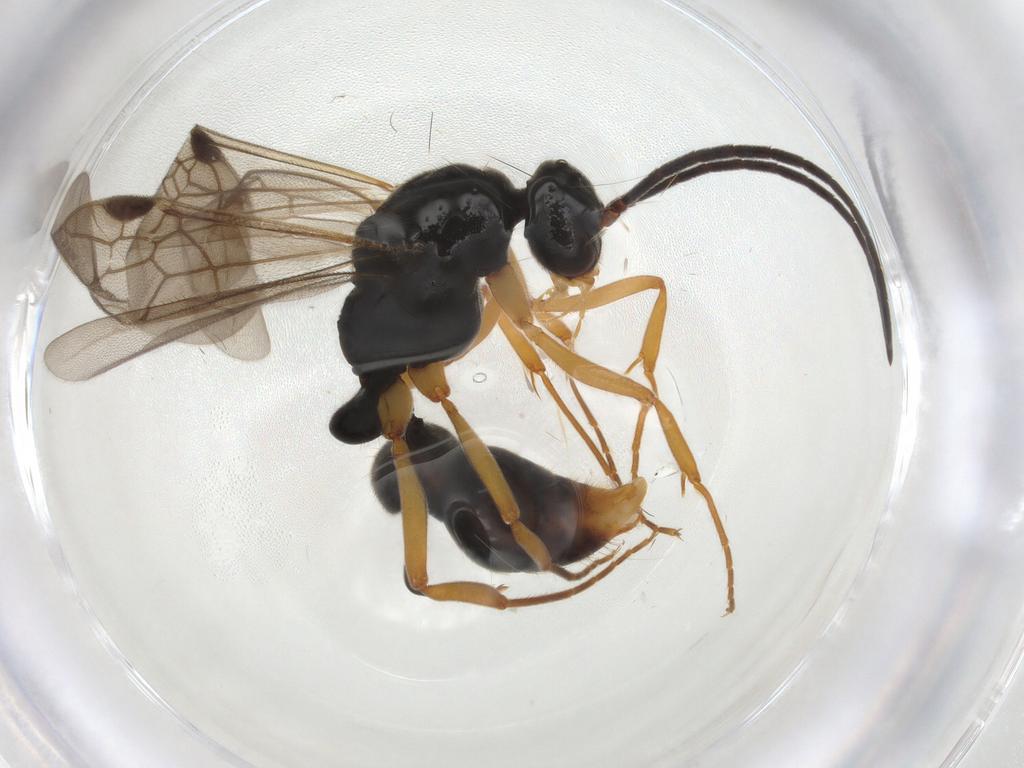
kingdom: Animalia
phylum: Arthropoda
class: Insecta
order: Hymenoptera
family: Formicidae
